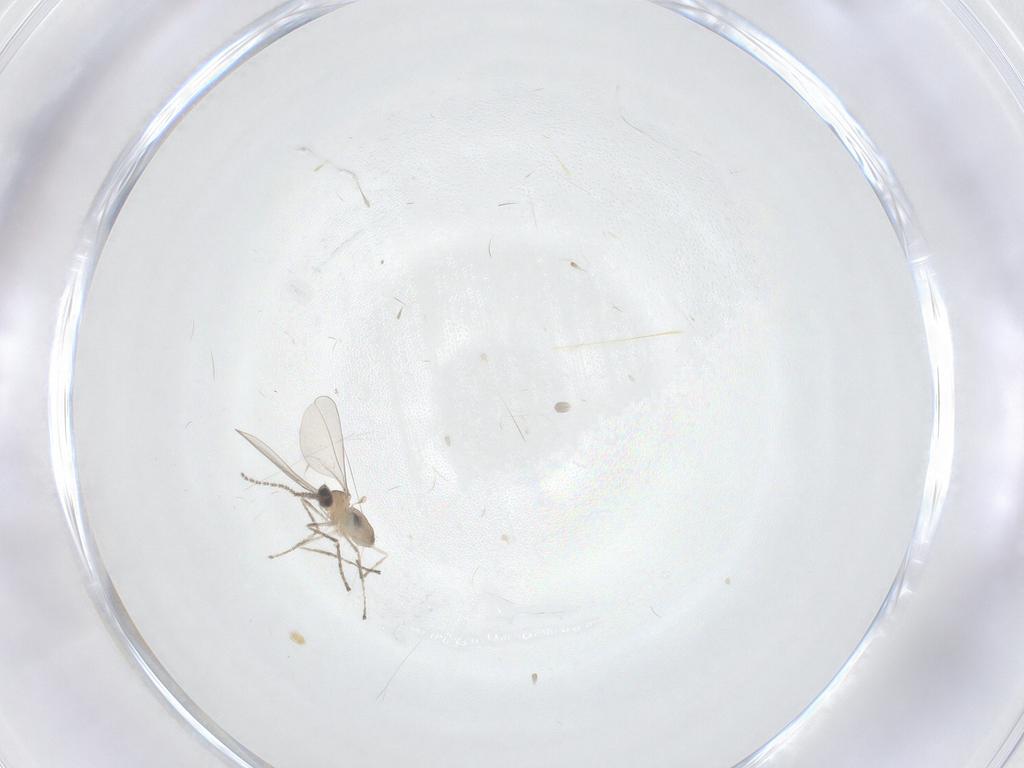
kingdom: Animalia
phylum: Arthropoda
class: Insecta
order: Diptera
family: Cecidomyiidae
